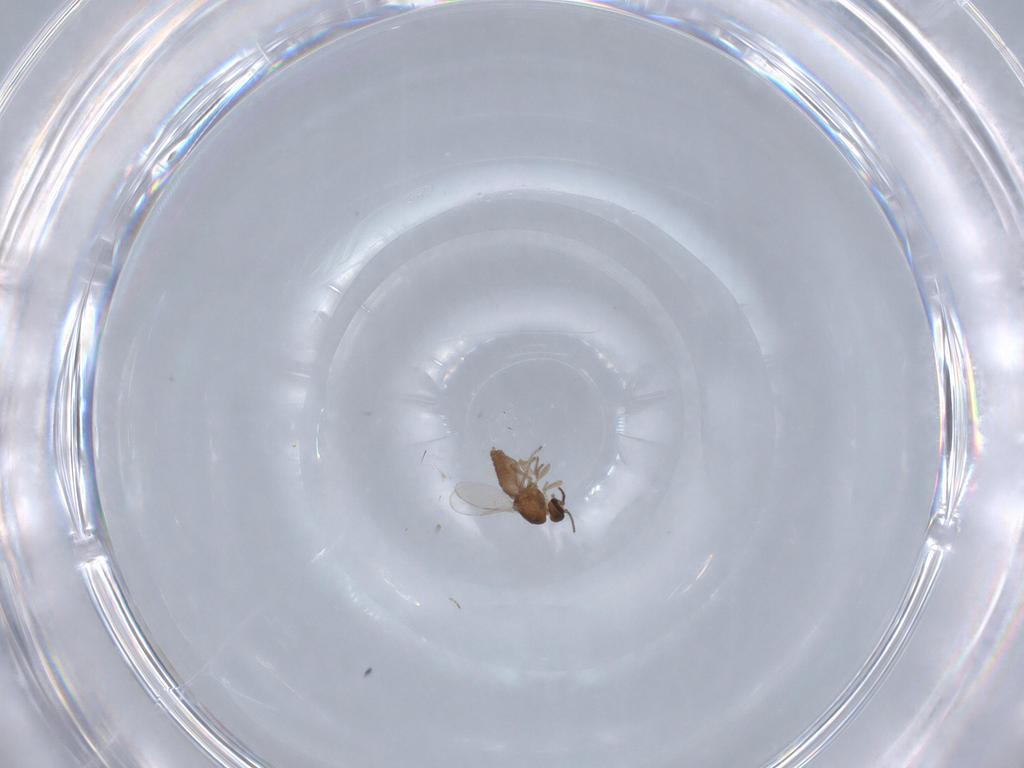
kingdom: Animalia
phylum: Arthropoda
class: Insecta
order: Diptera
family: Ceratopogonidae
